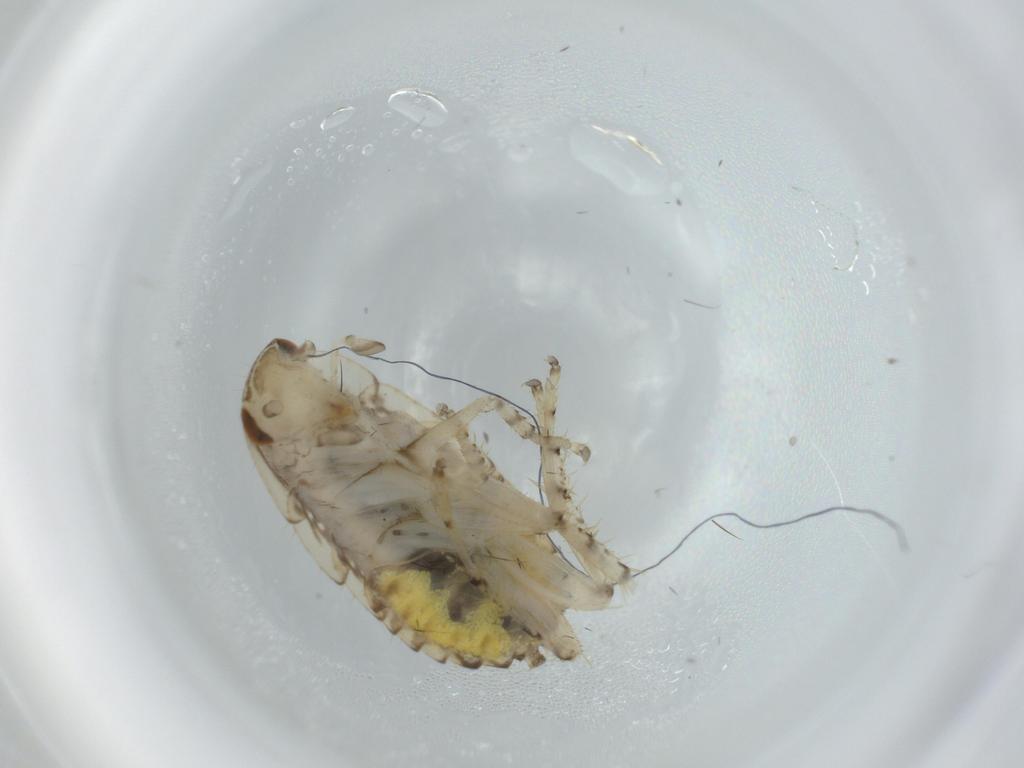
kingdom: Animalia
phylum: Arthropoda
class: Insecta
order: Blattodea
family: Ectobiidae
